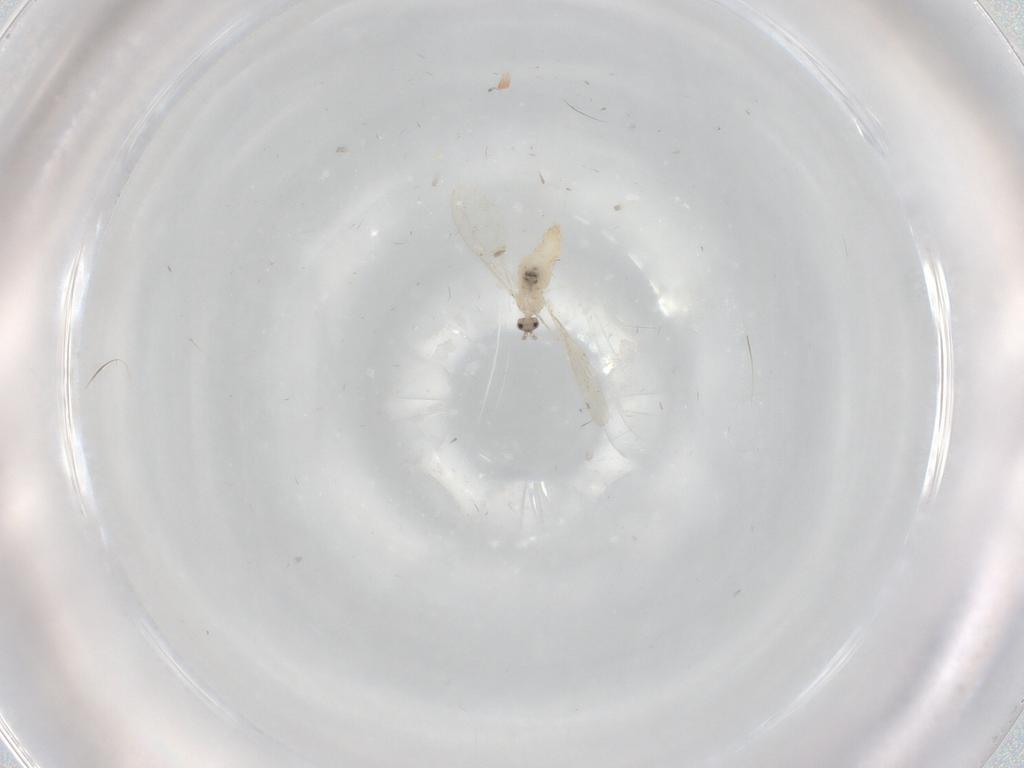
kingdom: Animalia
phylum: Arthropoda
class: Insecta
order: Diptera
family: Cecidomyiidae
